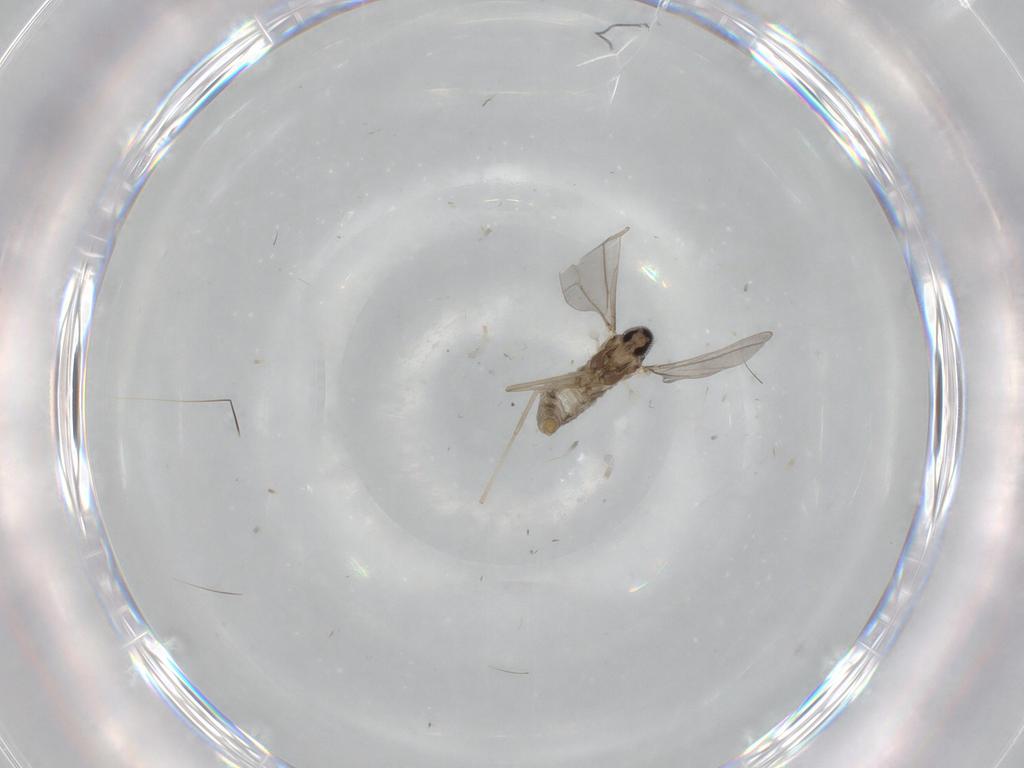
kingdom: Animalia
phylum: Arthropoda
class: Insecta
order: Diptera
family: Cecidomyiidae
